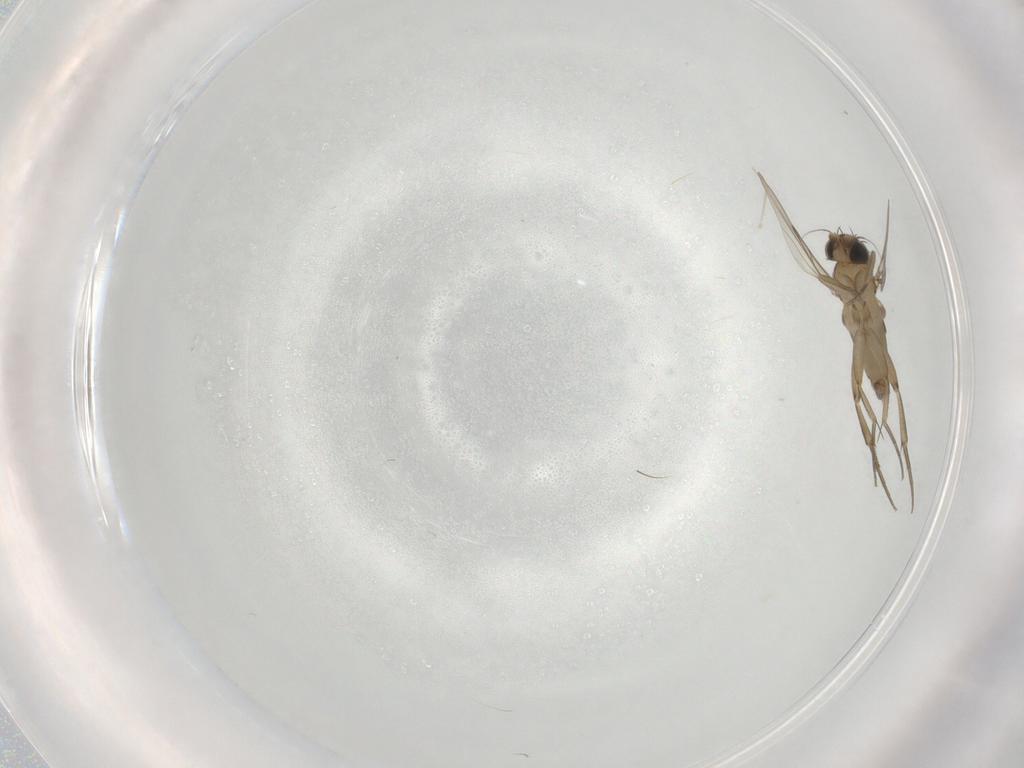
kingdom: Animalia
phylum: Arthropoda
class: Insecta
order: Diptera
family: Phoridae
